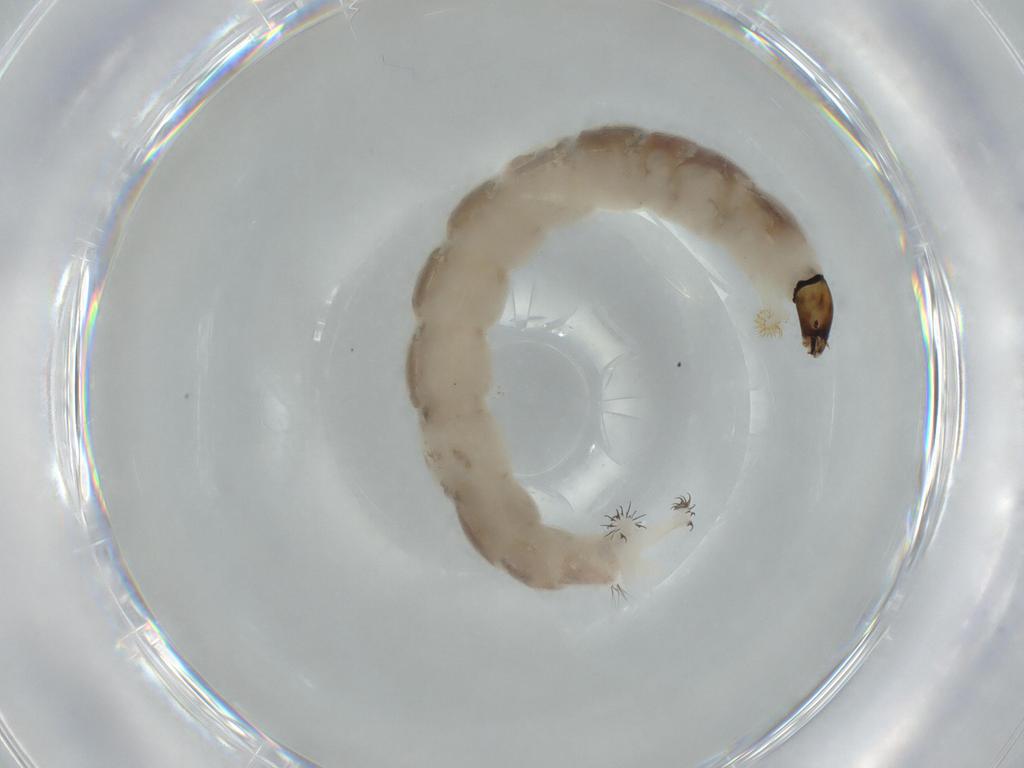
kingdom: Animalia
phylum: Arthropoda
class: Insecta
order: Diptera
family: Chironomidae
